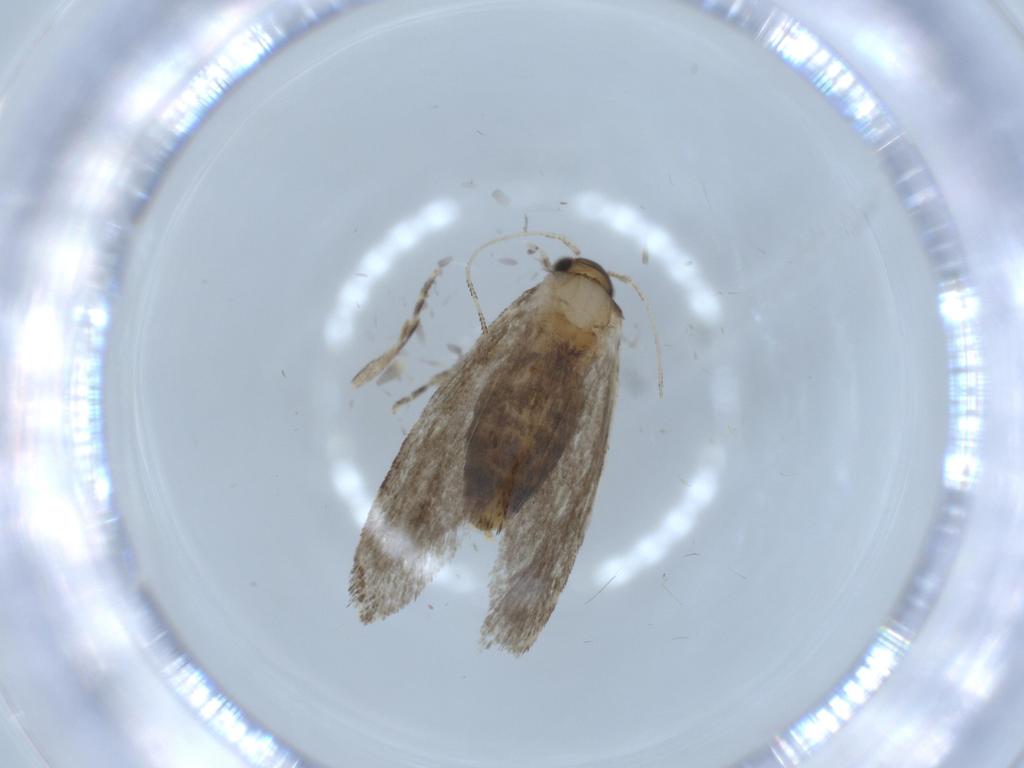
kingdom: Animalia
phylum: Arthropoda
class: Insecta
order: Lepidoptera
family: Tineidae
